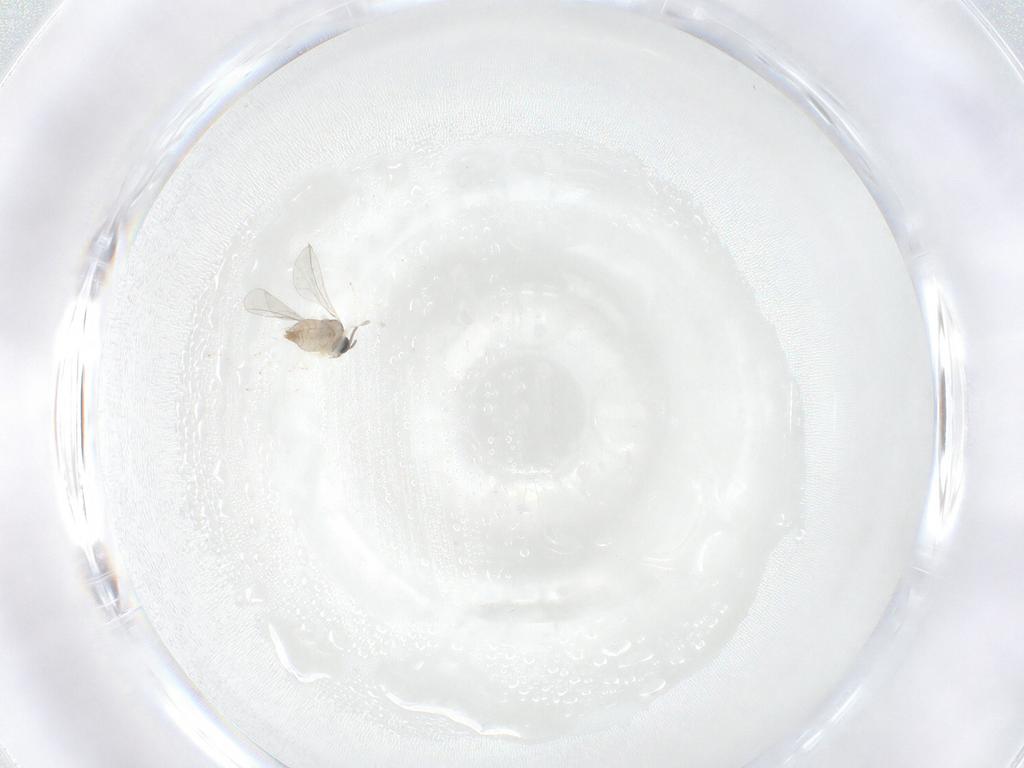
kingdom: Animalia
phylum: Arthropoda
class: Insecta
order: Diptera
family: Cecidomyiidae
